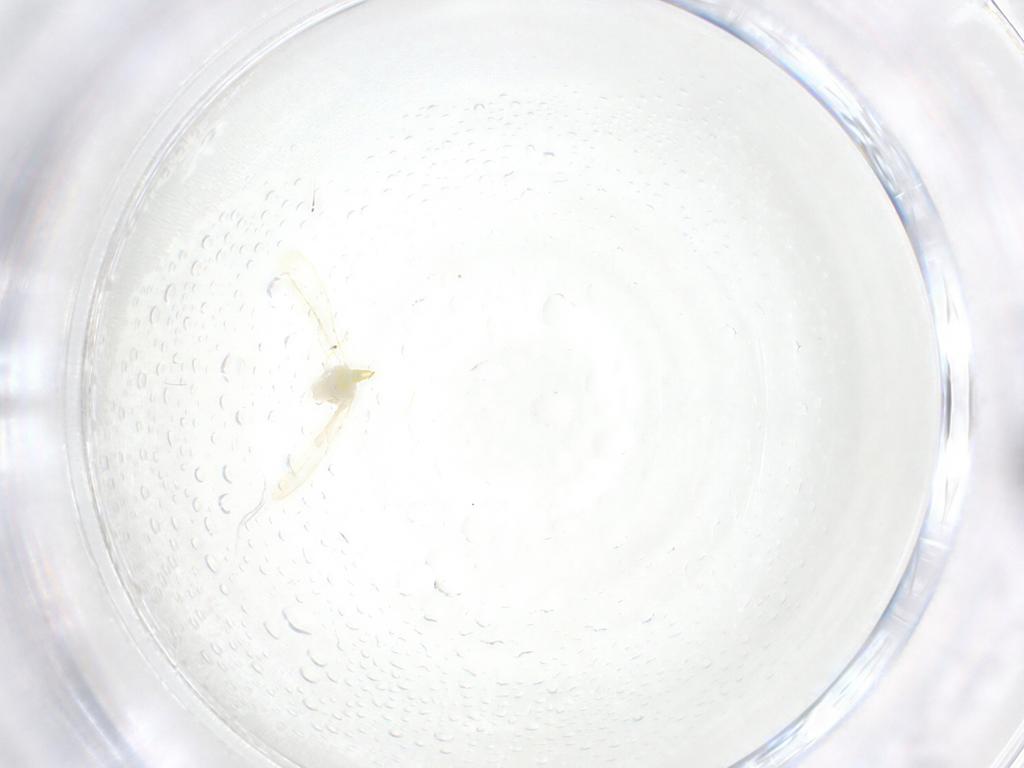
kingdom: Animalia
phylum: Arthropoda
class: Insecta
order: Hemiptera
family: Aleyrodidae
